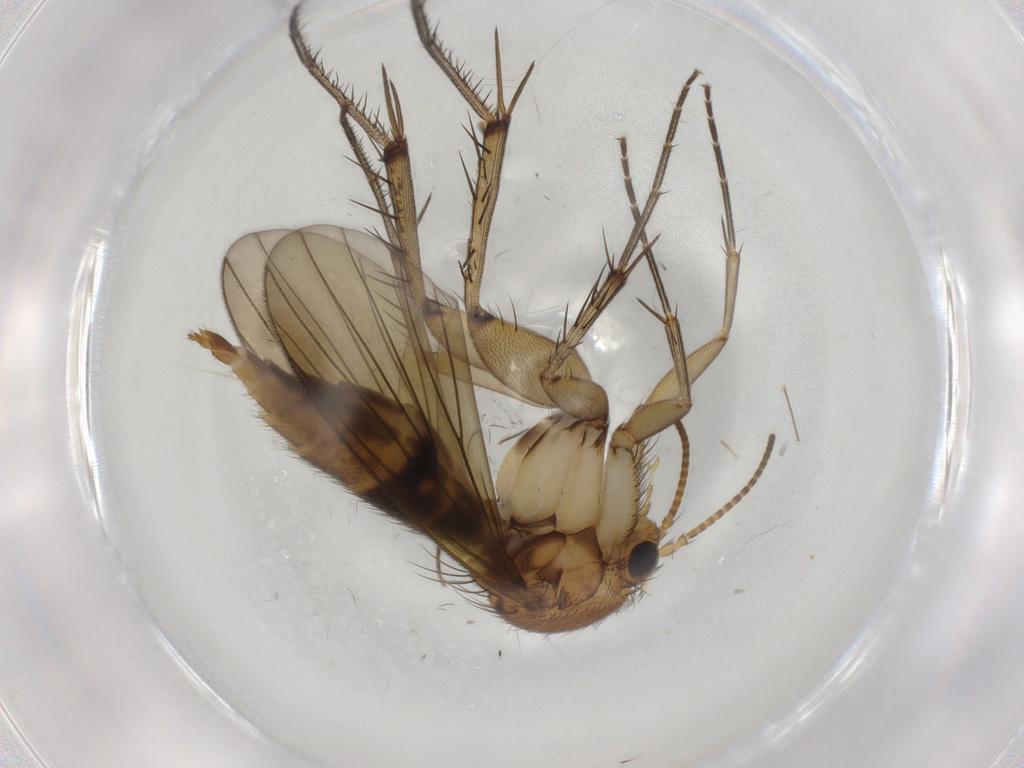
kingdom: Animalia
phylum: Arthropoda
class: Insecta
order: Diptera
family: Mycetophilidae
